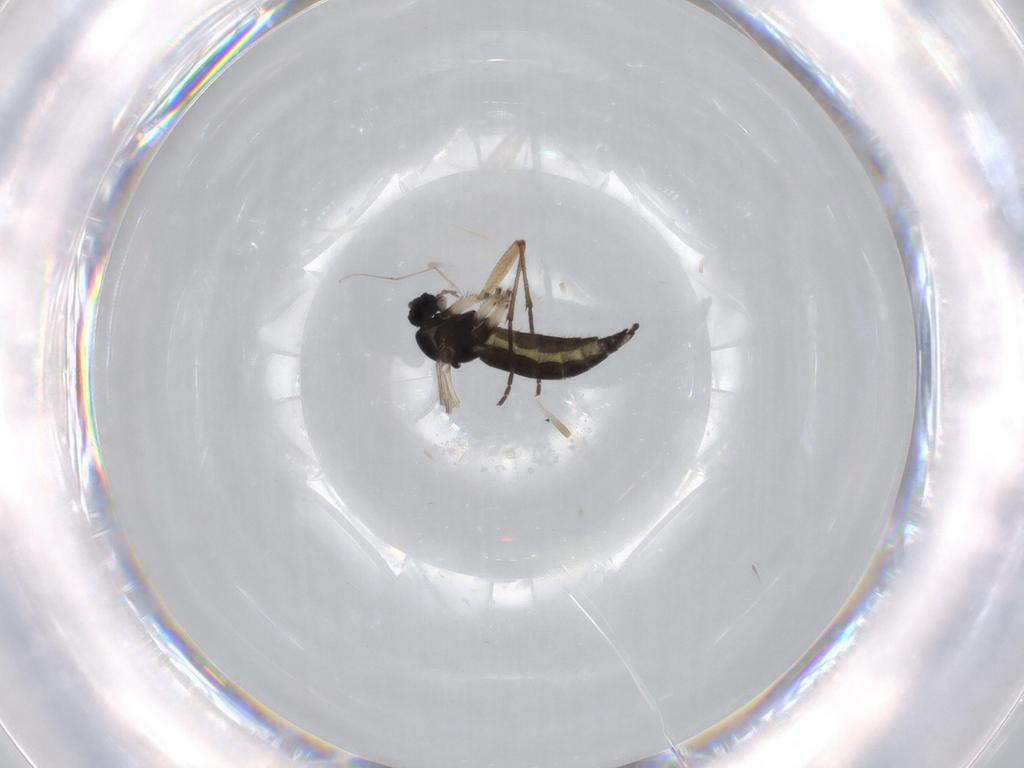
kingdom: Animalia
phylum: Arthropoda
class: Insecta
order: Diptera
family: Sciaridae
